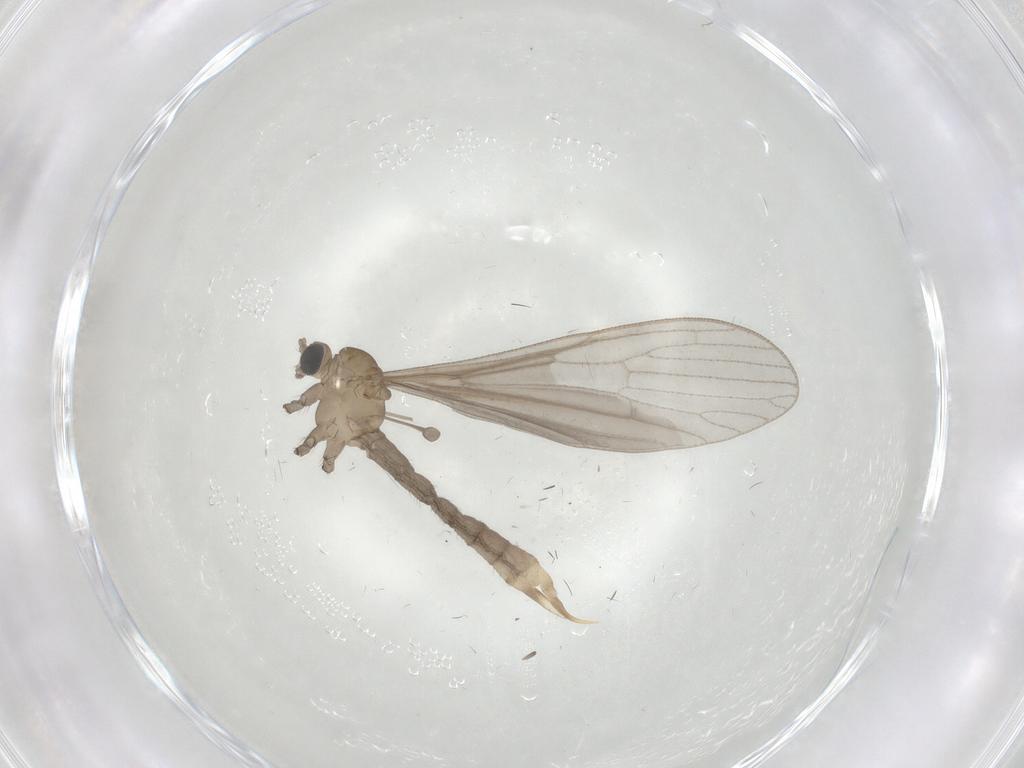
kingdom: Animalia
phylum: Arthropoda
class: Insecta
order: Diptera
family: Limoniidae
